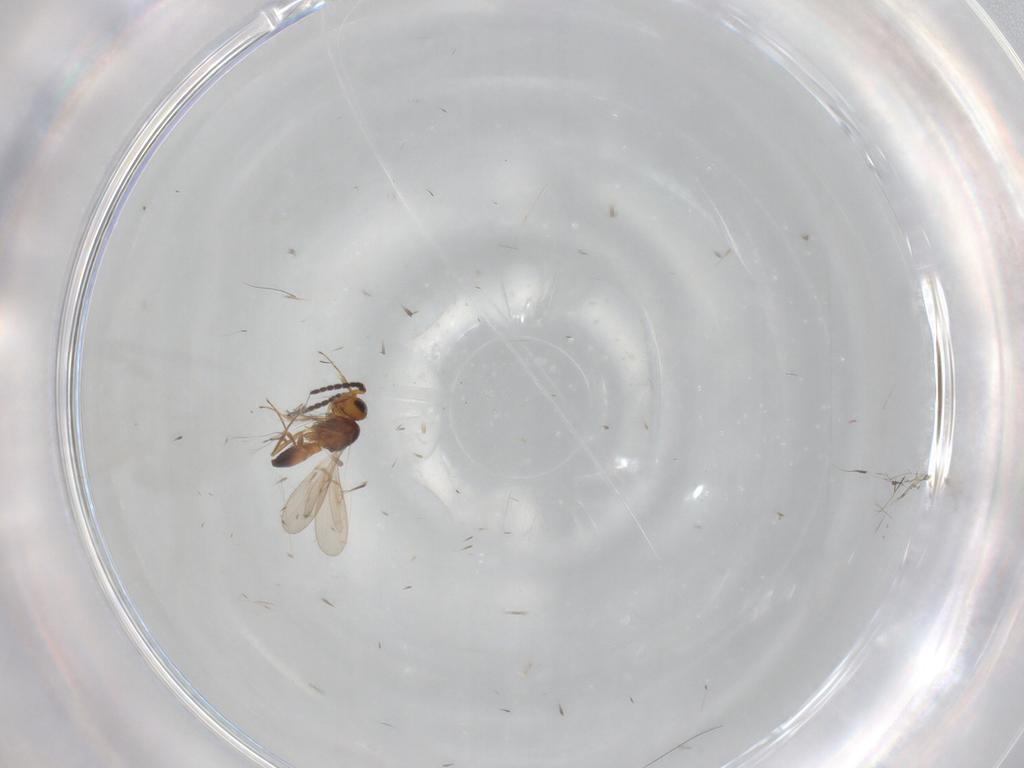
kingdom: Animalia
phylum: Arthropoda
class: Insecta
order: Hymenoptera
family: Scelionidae
